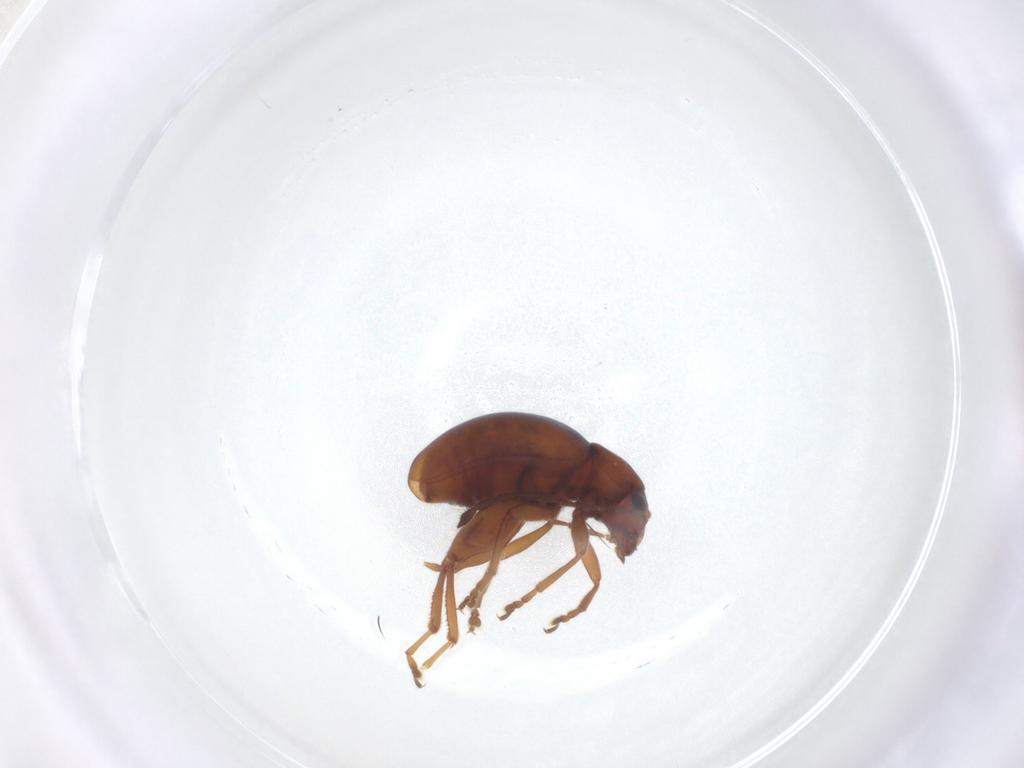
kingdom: Animalia
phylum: Arthropoda
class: Insecta
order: Coleoptera
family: Chrysomelidae
